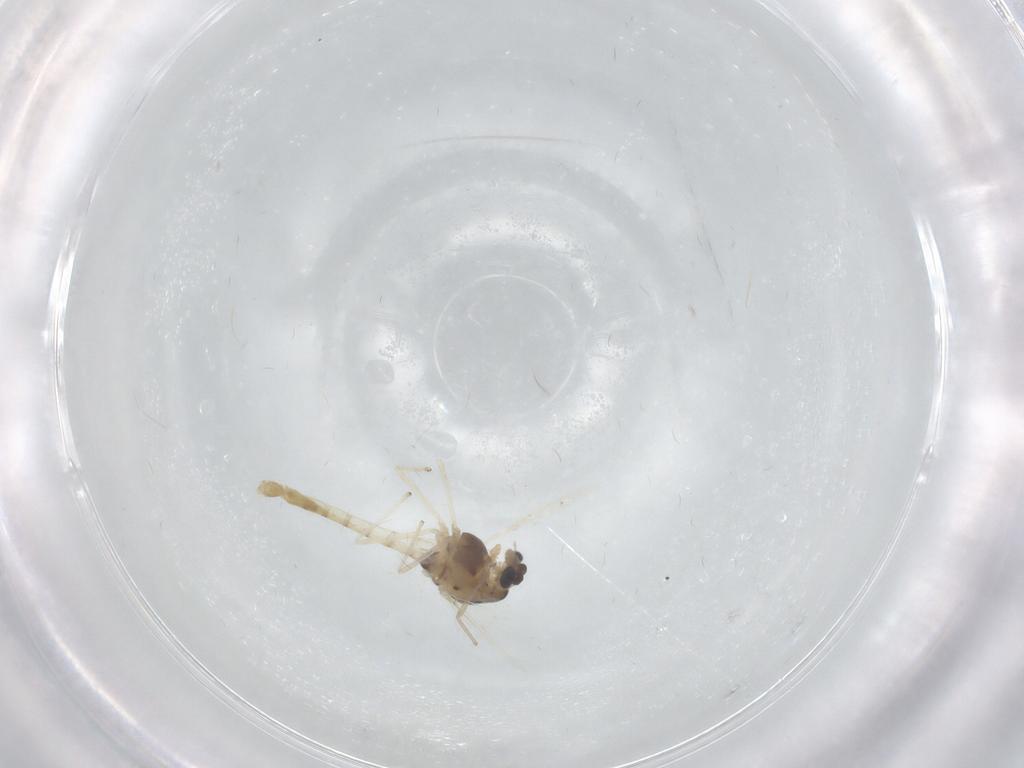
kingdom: Animalia
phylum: Arthropoda
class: Insecta
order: Diptera
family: Chironomidae
